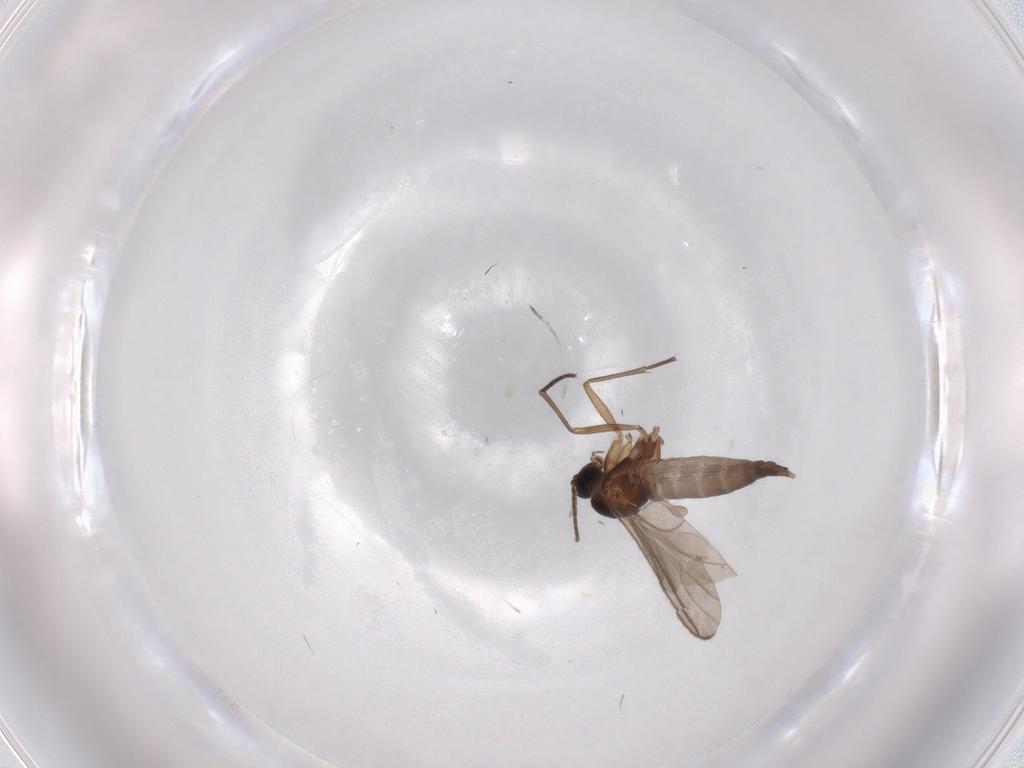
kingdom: Animalia
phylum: Arthropoda
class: Insecta
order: Diptera
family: Sciaridae
